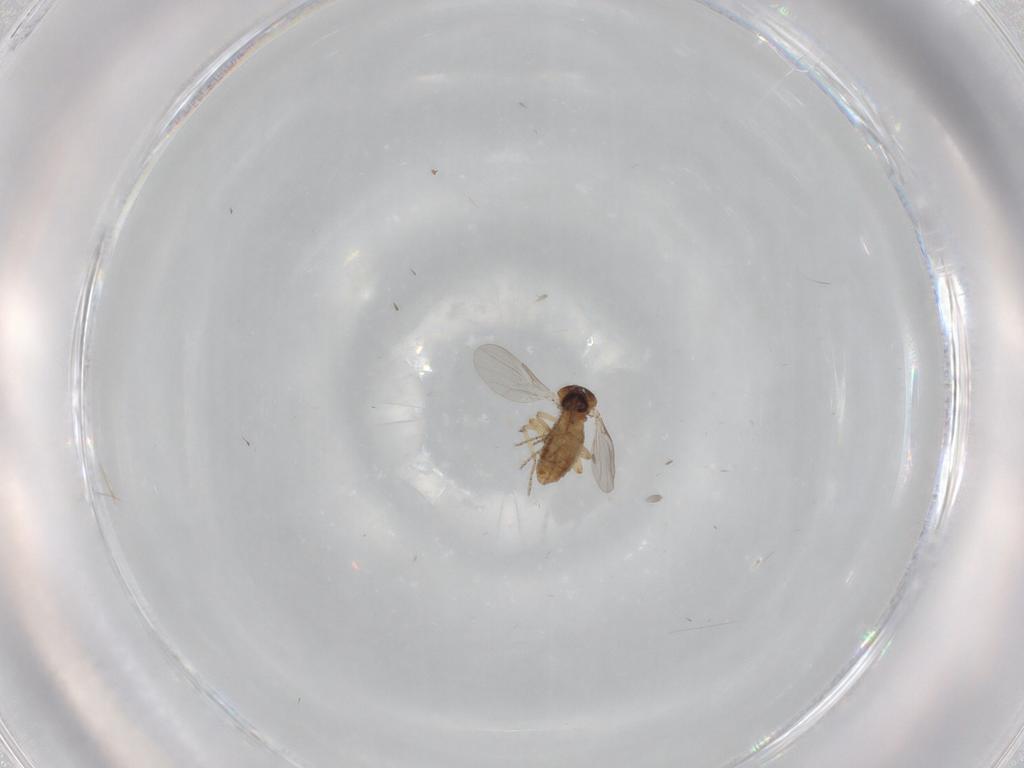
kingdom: Animalia
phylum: Arthropoda
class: Insecta
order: Diptera
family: Ceratopogonidae
